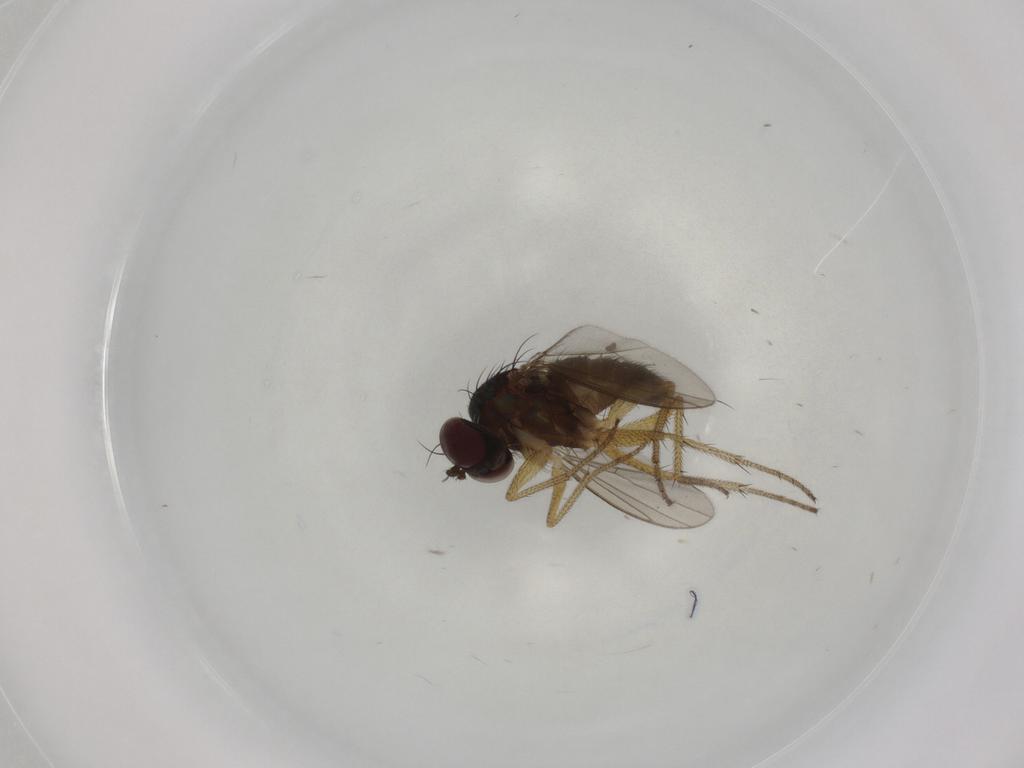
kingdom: Animalia
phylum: Arthropoda
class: Insecta
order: Diptera
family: Dolichopodidae
